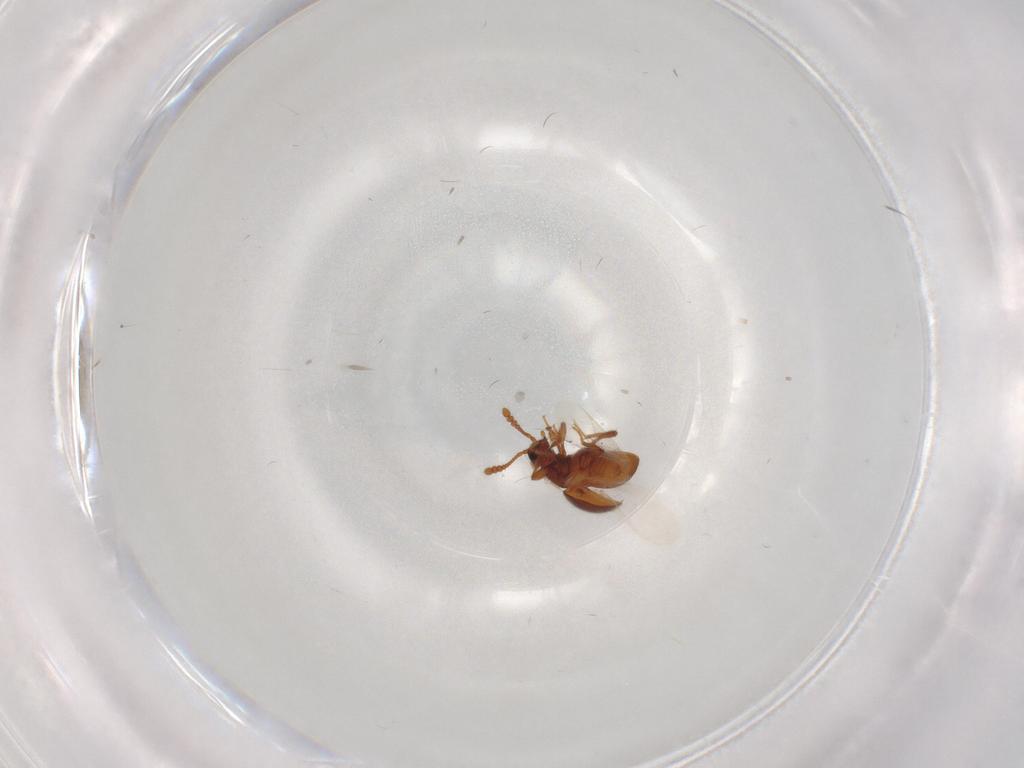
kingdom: Animalia
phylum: Arthropoda
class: Insecta
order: Coleoptera
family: Staphylinidae
